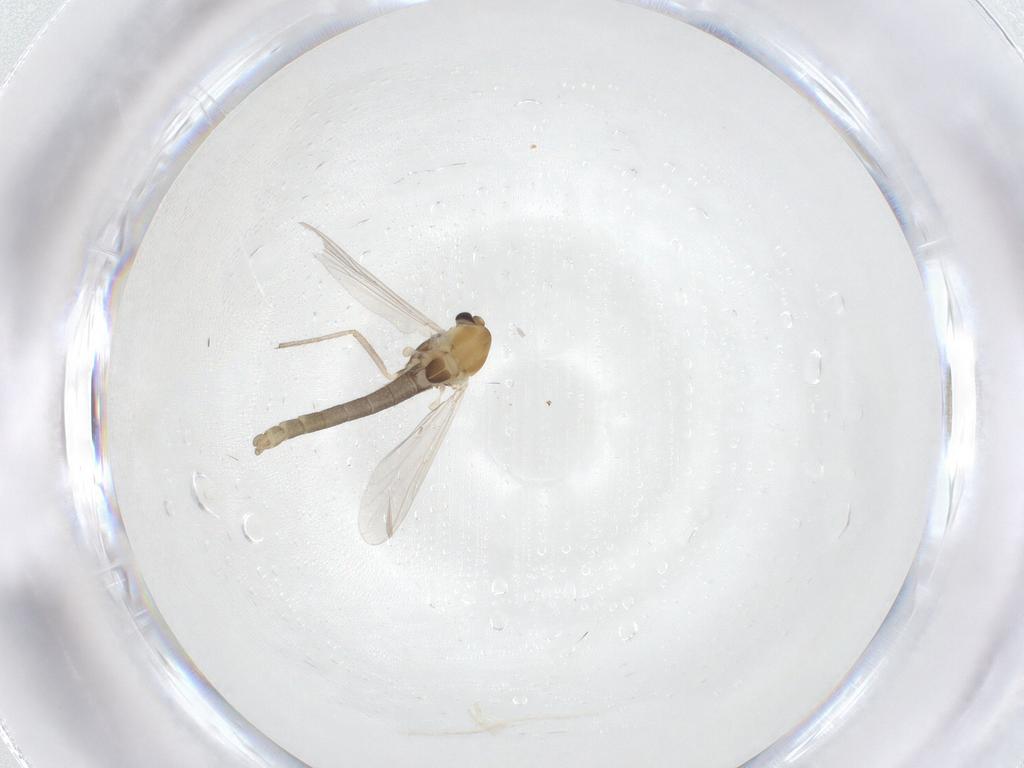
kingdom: Animalia
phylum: Arthropoda
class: Insecta
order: Diptera
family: Chironomidae
